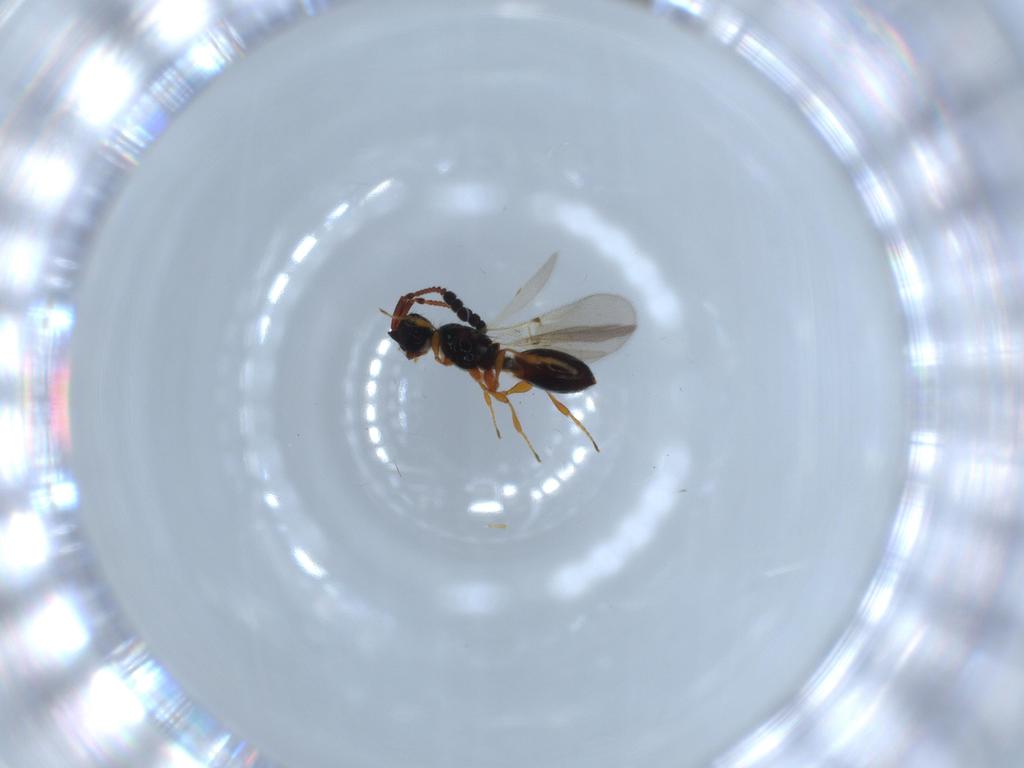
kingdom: Animalia
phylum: Arthropoda
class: Insecta
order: Hymenoptera
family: Diapriidae
